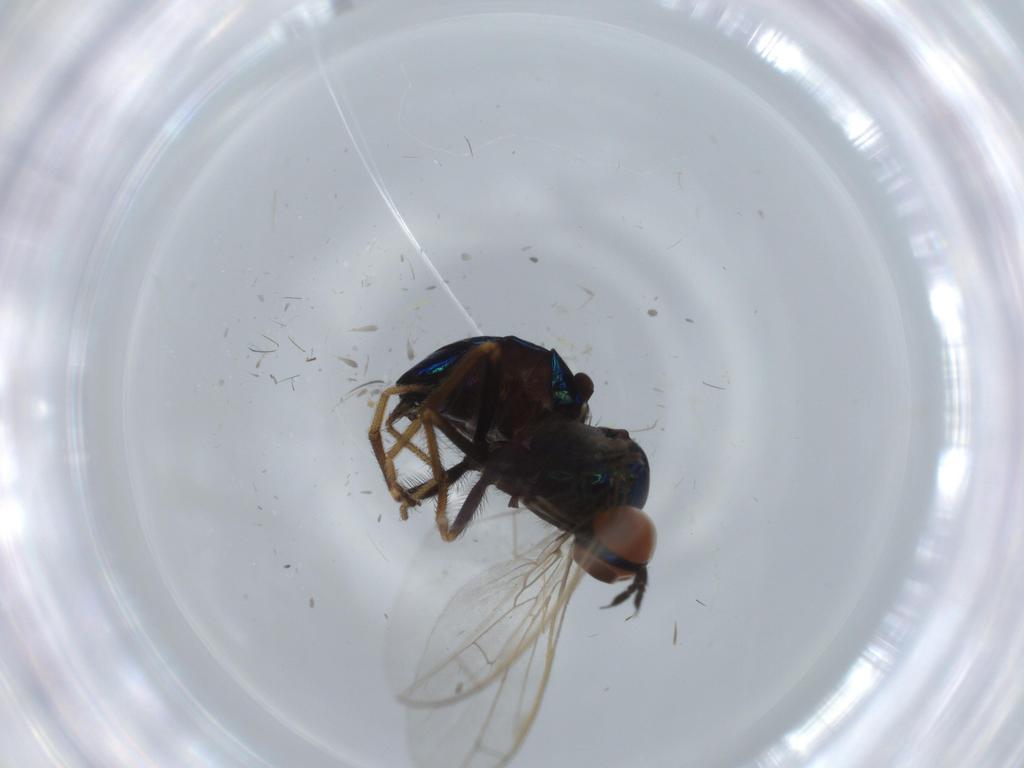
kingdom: Animalia
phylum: Arthropoda
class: Insecta
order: Diptera
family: Empididae
